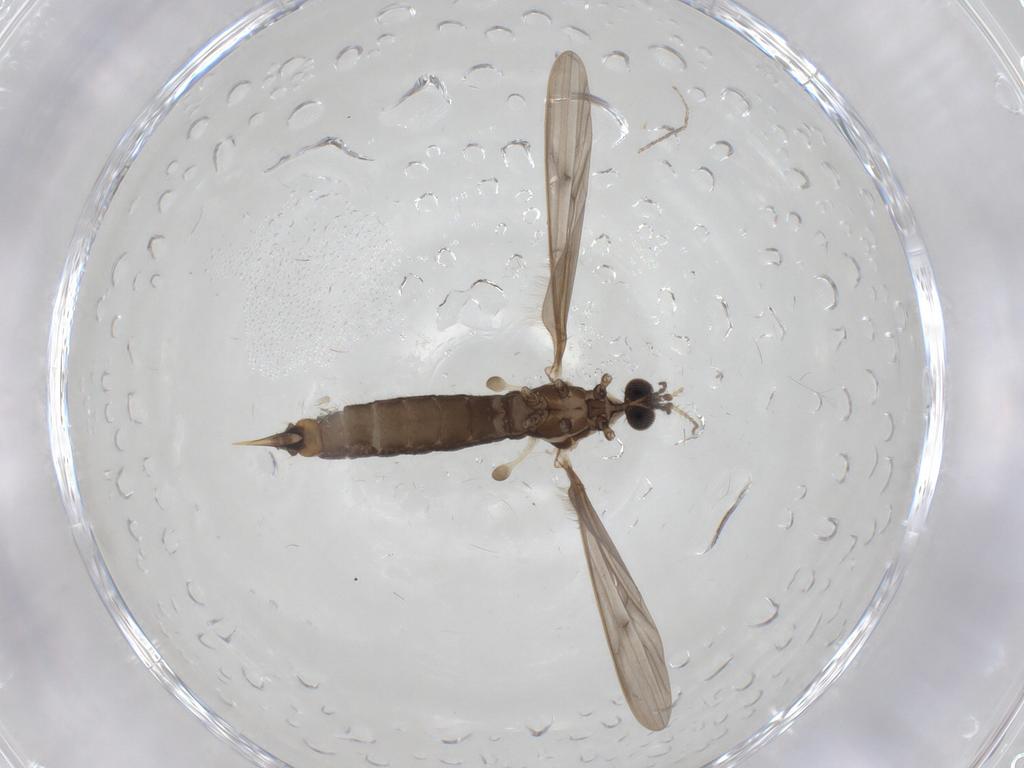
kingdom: Animalia
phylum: Arthropoda
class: Insecta
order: Diptera
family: Limoniidae
